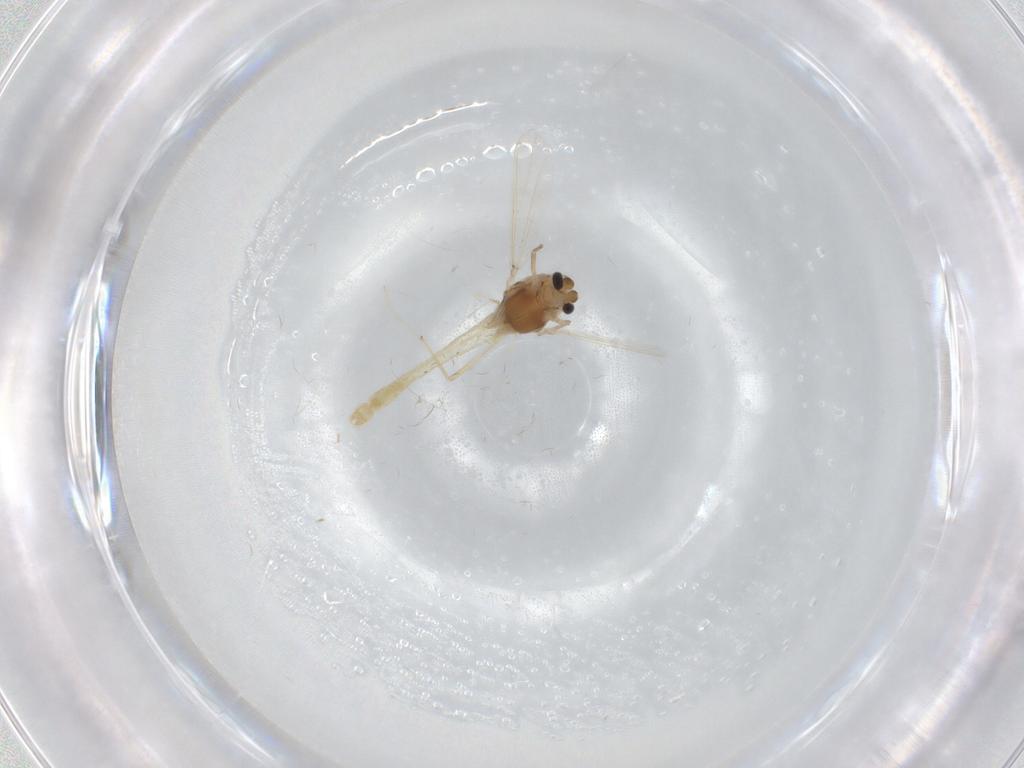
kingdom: Animalia
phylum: Arthropoda
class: Insecta
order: Diptera
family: Chironomidae
